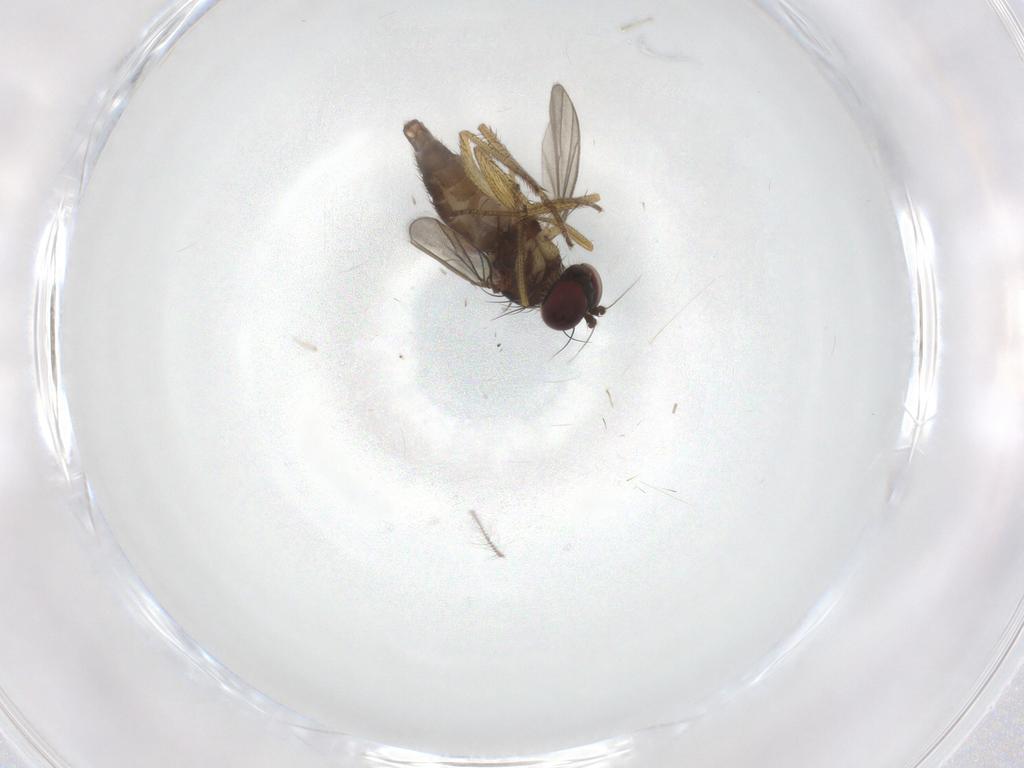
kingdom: Animalia
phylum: Arthropoda
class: Insecta
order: Diptera
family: Dolichopodidae
